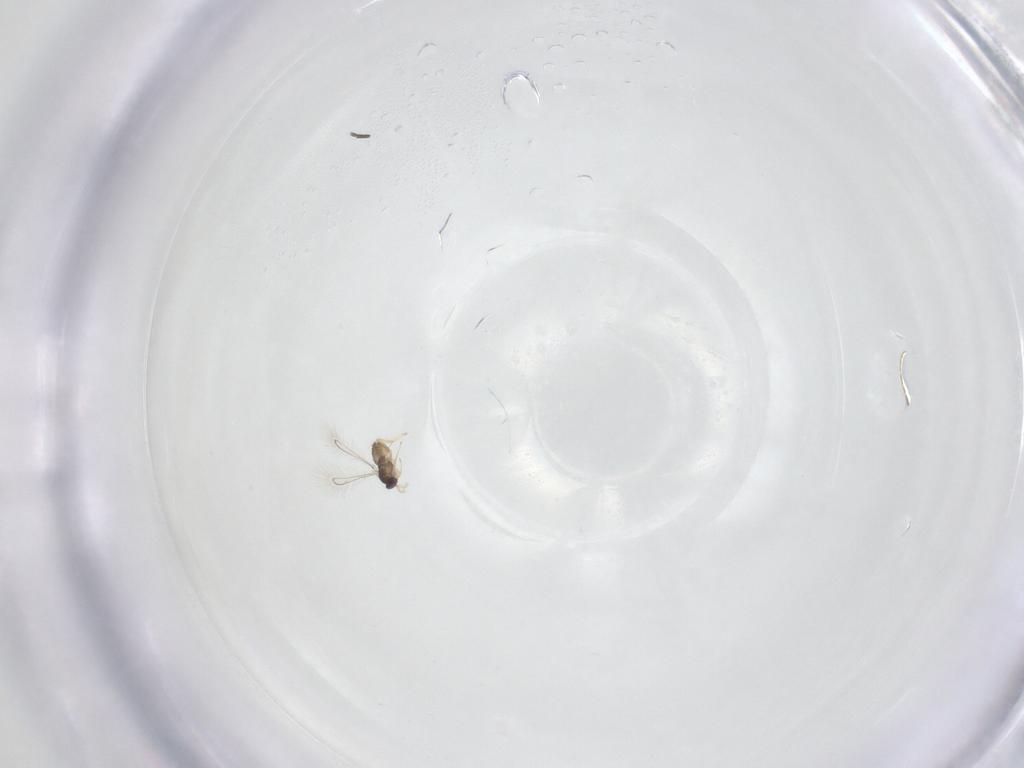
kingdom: Animalia
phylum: Arthropoda
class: Insecta
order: Hymenoptera
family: Mymaridae
